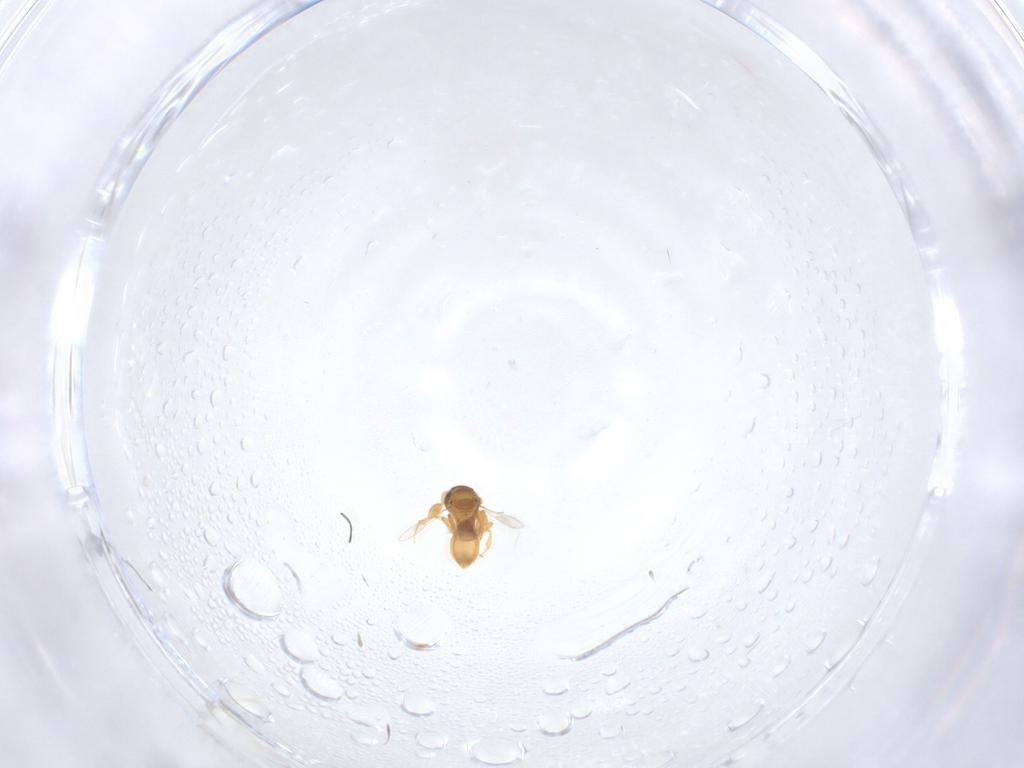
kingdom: Animalia
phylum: Arthropoda
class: Insecta
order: Hymenoptera
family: Scelionidae
